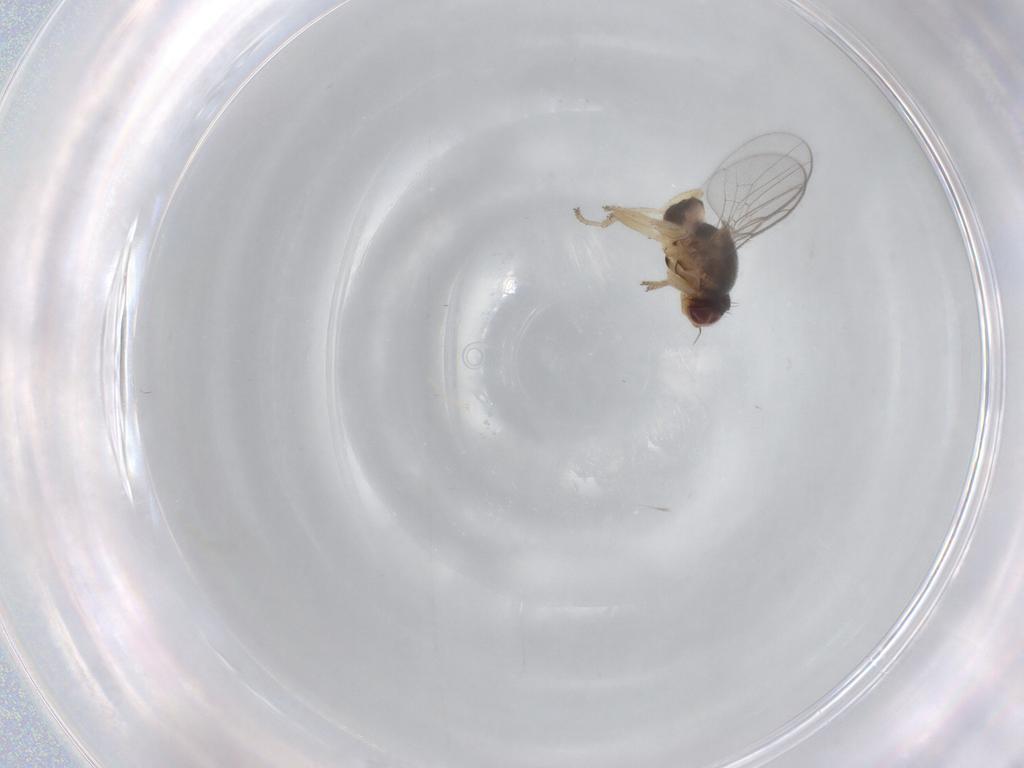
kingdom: Animalia
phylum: Arthropoda
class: Insecta
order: Diptera
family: Chloropidae
